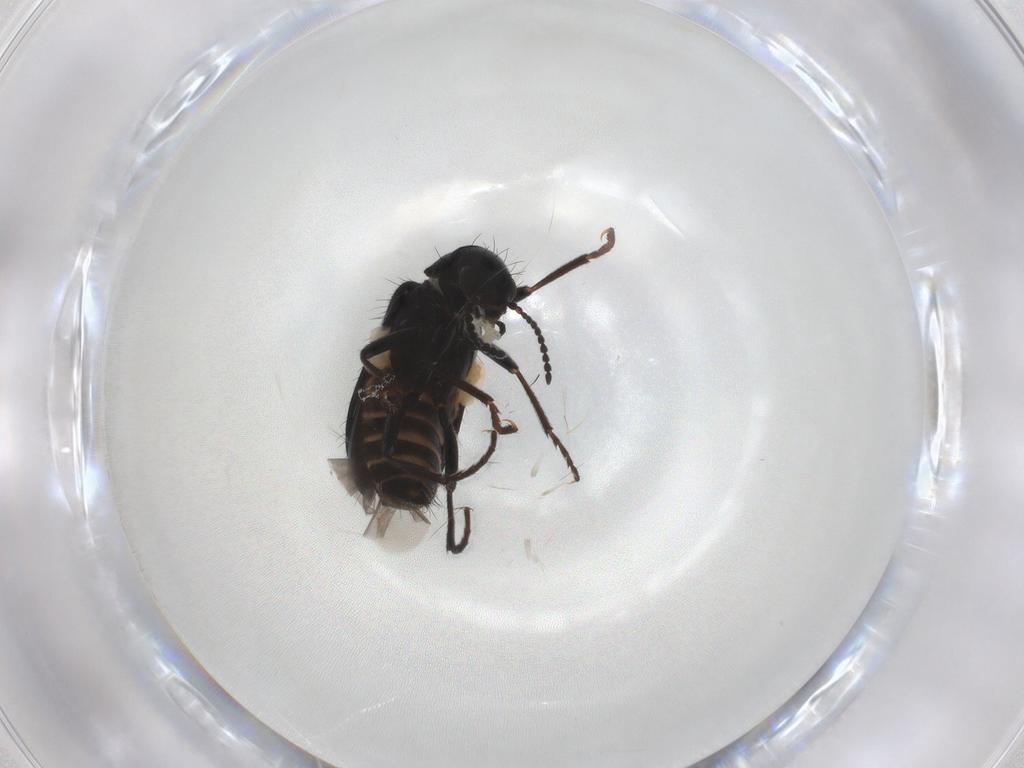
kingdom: Animalia
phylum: Arthropoda
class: Insecta
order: Coleoptera
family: Melyridae
